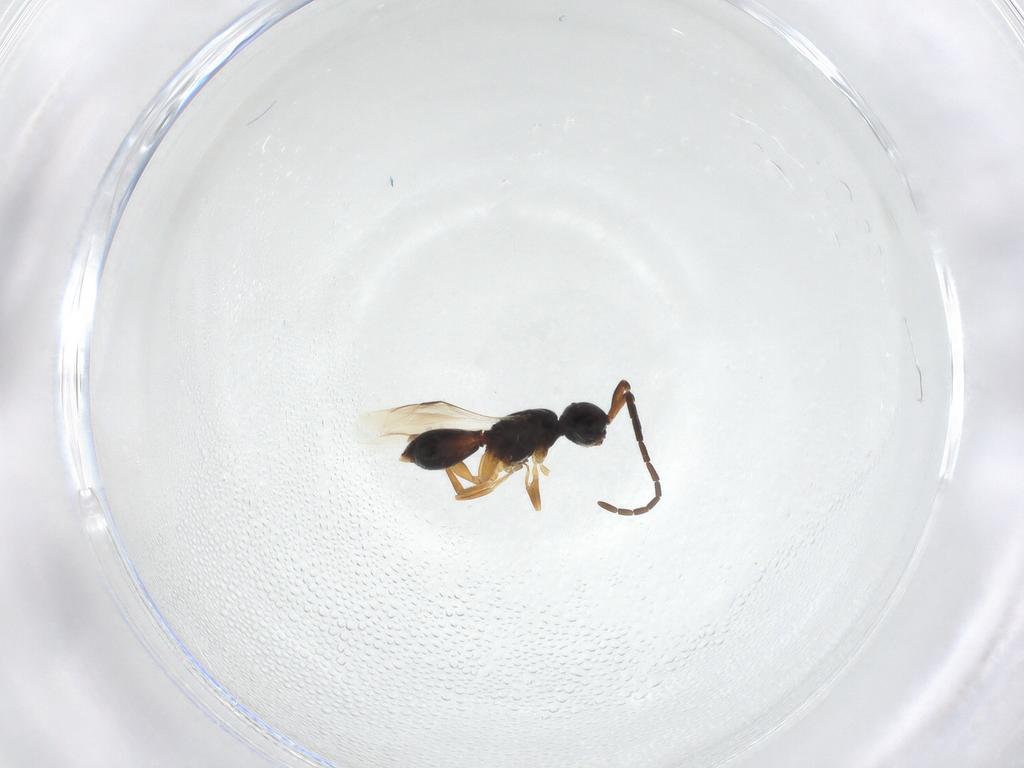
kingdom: Animalia
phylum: Arthropoda
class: Insecta
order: Hymenoptera
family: Megaspilidae
